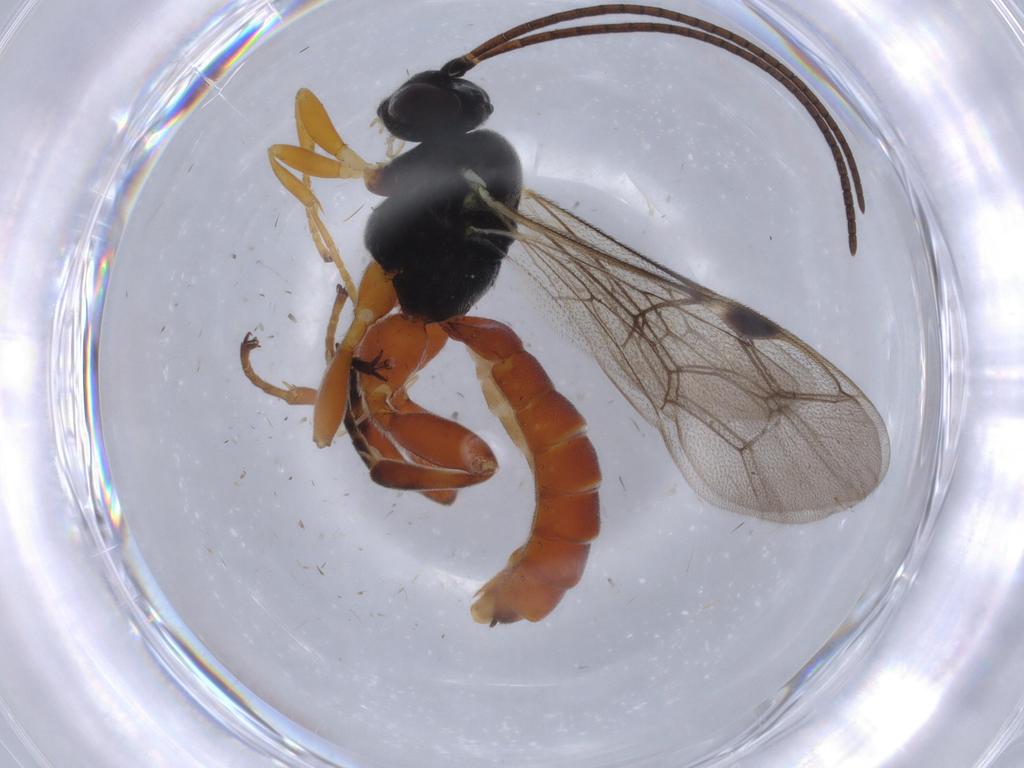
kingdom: Animalia
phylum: Arthropoda
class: Insecta
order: Hymenoptera
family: Ichneumonidae
